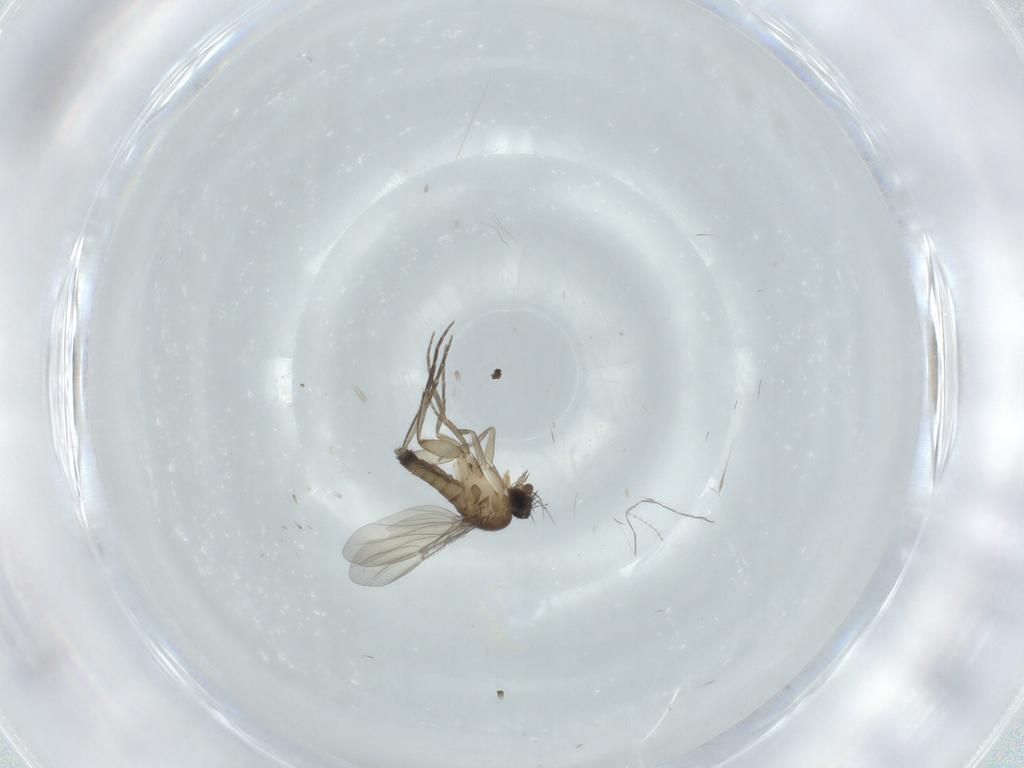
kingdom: Animalia
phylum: Arthropoda
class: Insecta
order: Diptera
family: Phoridae
